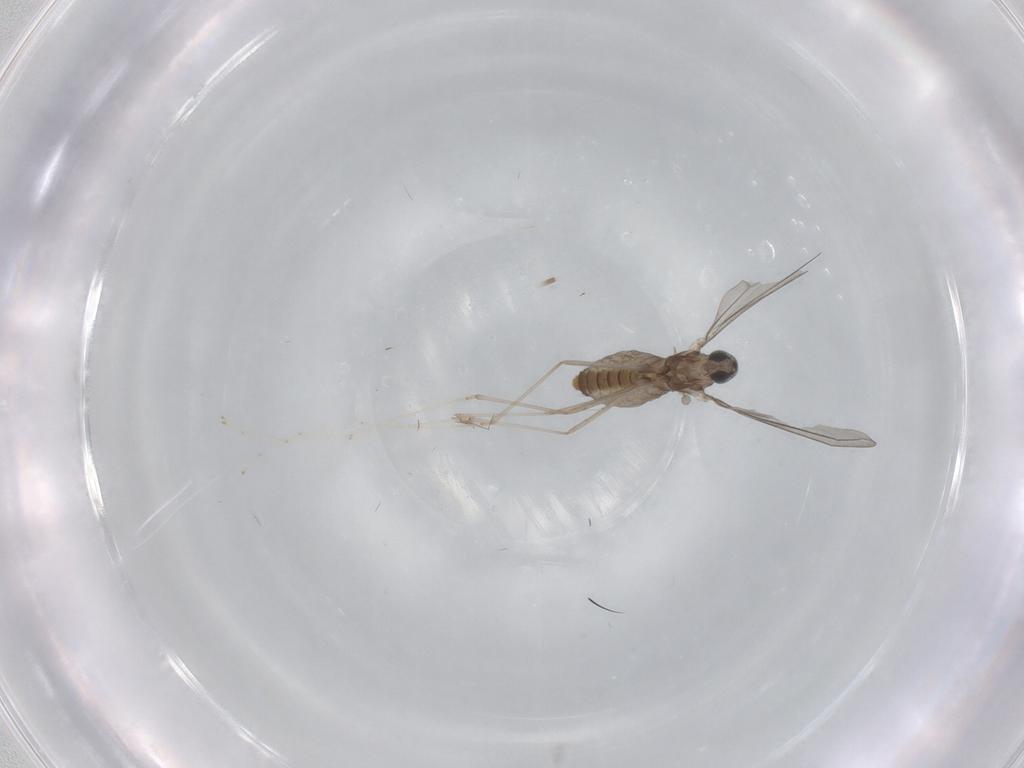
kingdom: Animalia
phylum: Arthropoda
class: Insecta
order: Diptera
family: Cecidomyiidae
